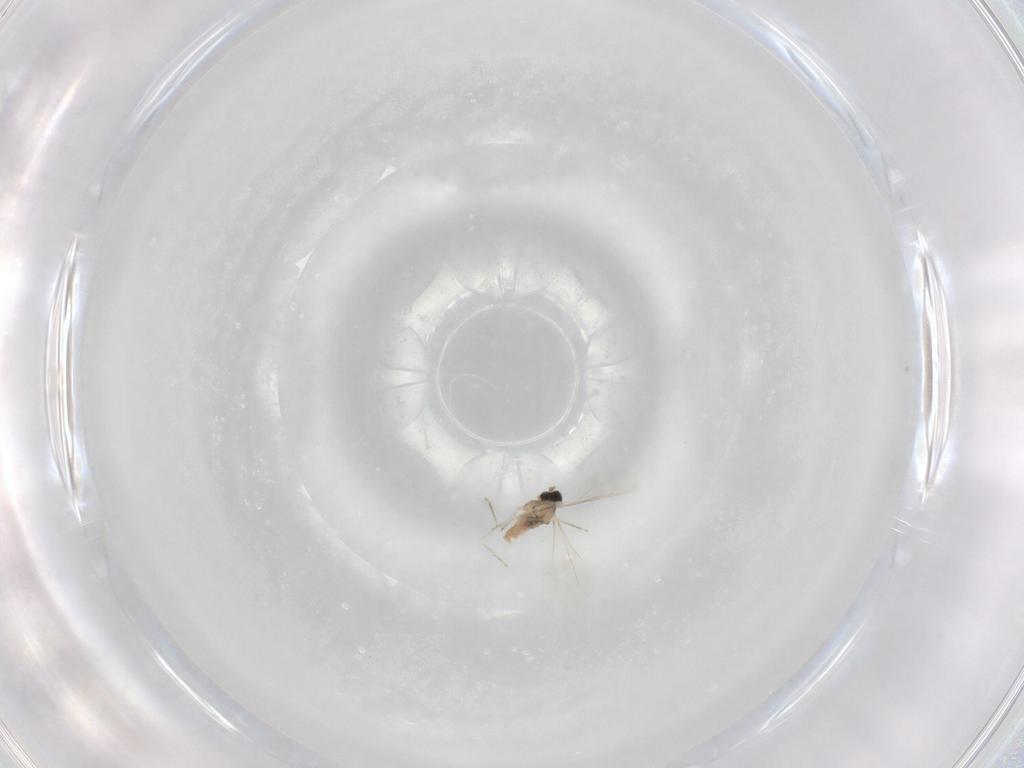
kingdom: Animalia
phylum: Arthropoda
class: Insecta
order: Diptera
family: Cecidomyiidae
